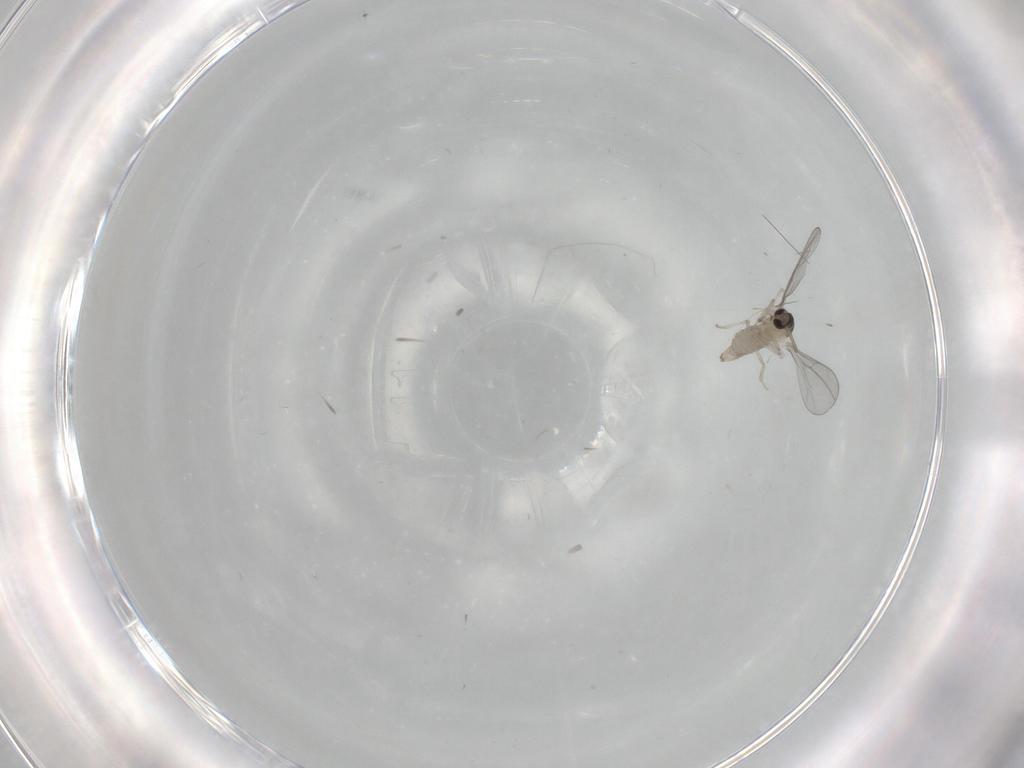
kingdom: Animalia
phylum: Arthropoda
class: Insecta
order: Diptera
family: Cecidomyiidae
